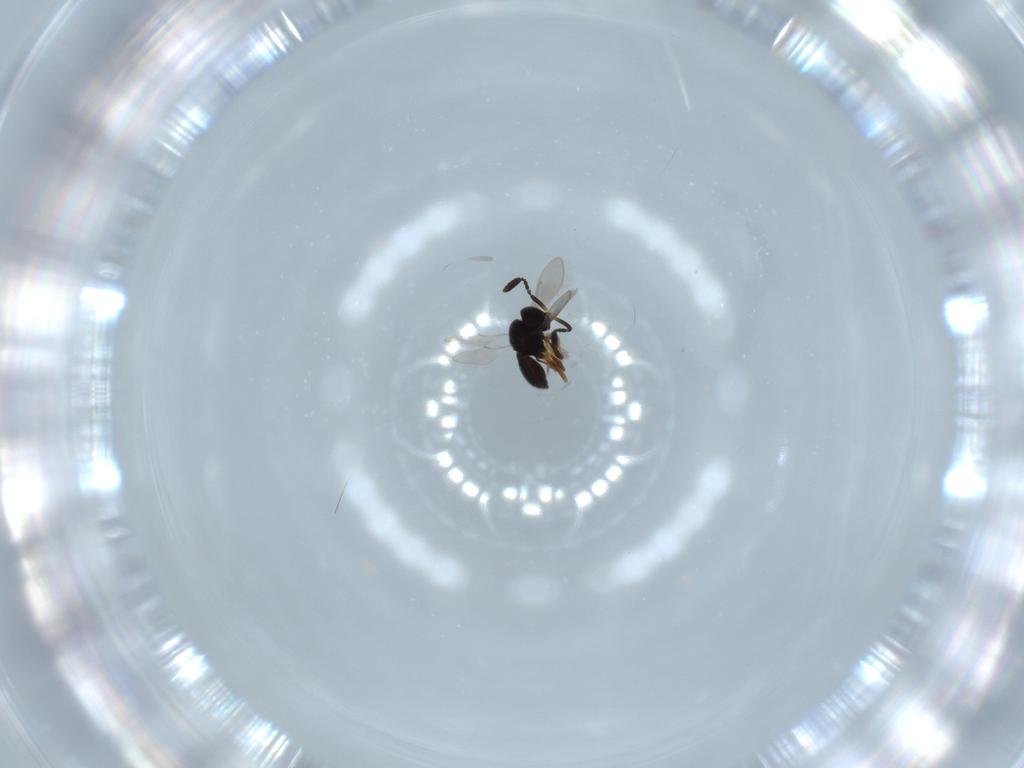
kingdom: Animalia
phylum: Arthropoda
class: Insecta
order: Hymenoptera
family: Scelionidae
